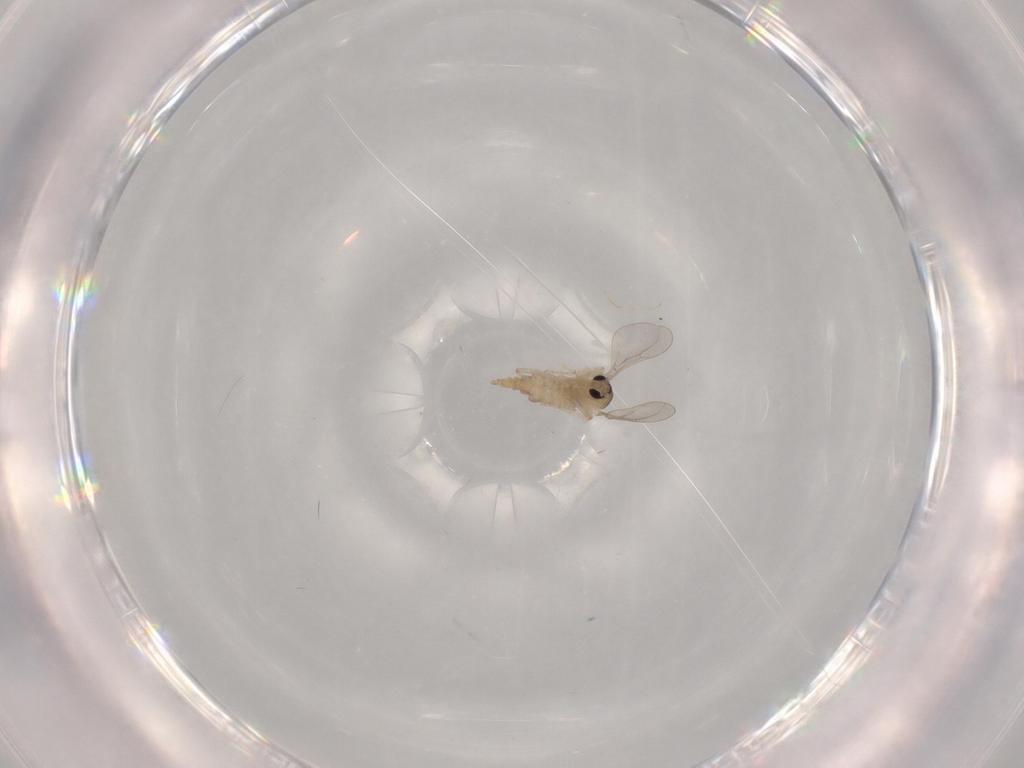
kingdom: Animalia
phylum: Arthropoda
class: Insecta
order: Diptera
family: Cecidomyiidae
